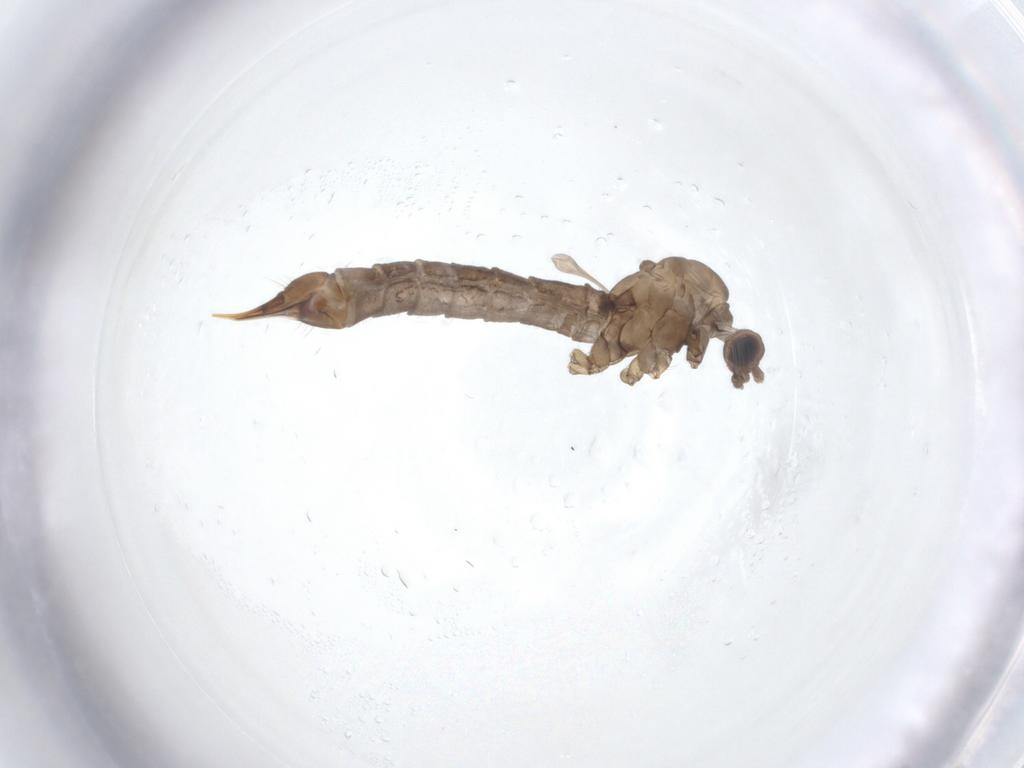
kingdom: Animalia
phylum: Arthropoda
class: Insecta
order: Diptera
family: Limoniidae
